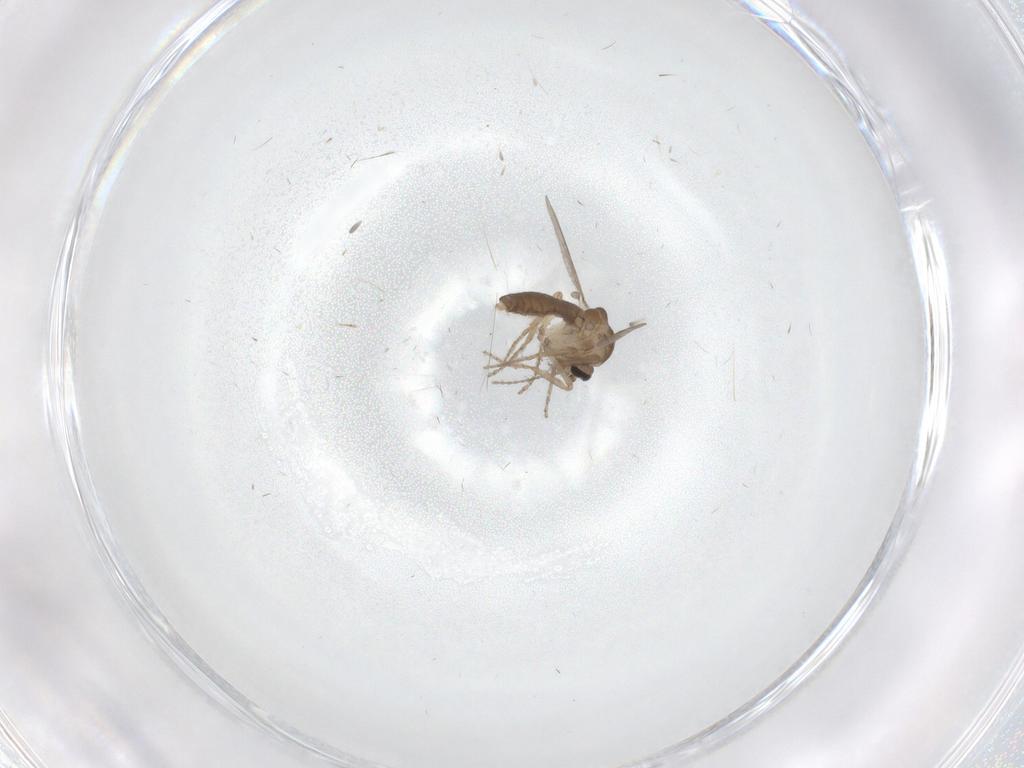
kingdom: Animalia
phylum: Arthropoda
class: Insecta
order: Diptera
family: Ceratopogonidae
